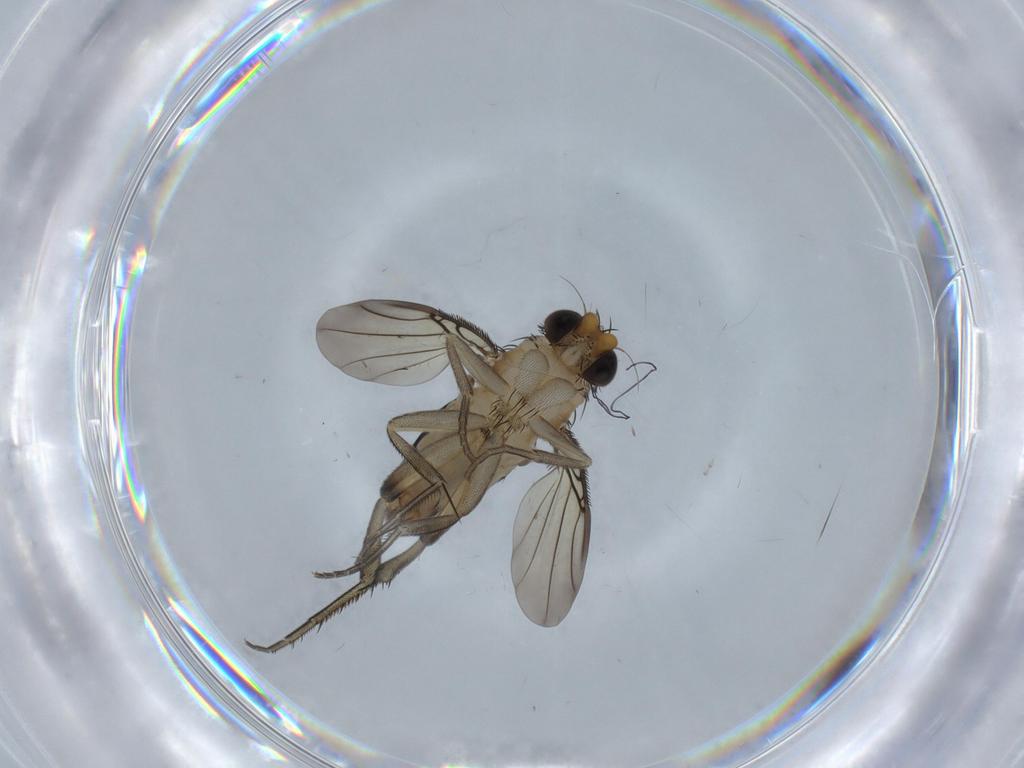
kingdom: Animalia
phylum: Arthropoda
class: Insecta
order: Diptera
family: Phoridae
